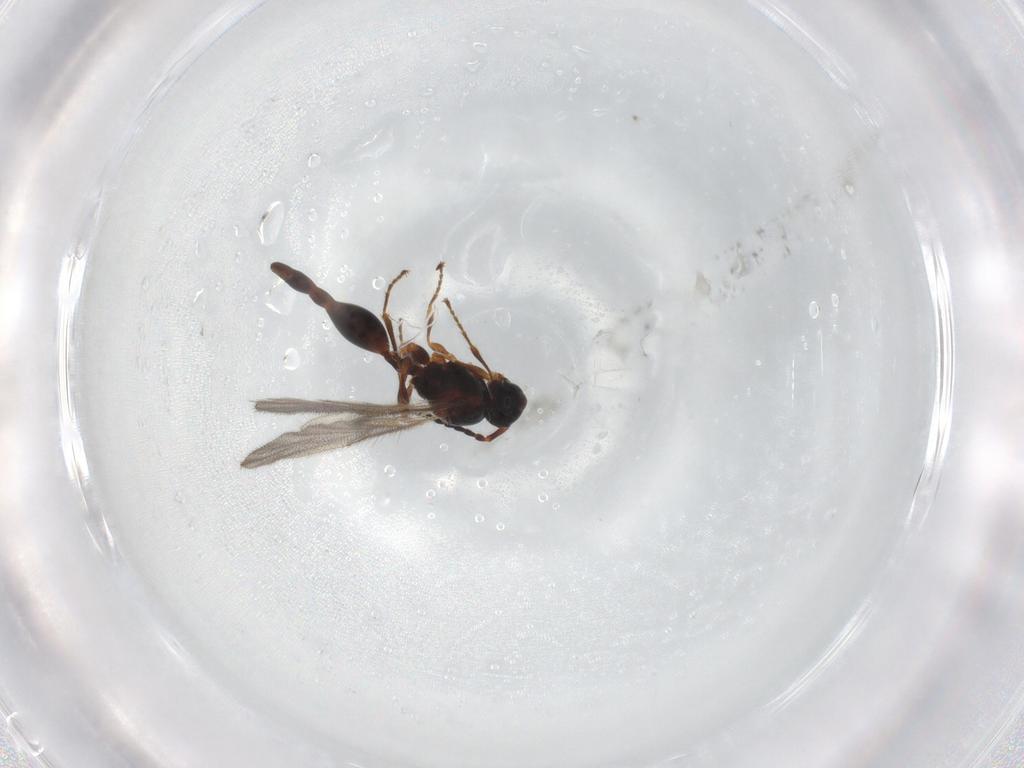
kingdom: Animalia
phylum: Arthropoda
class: Insecta
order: Hymenoptera
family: Diapriidae
